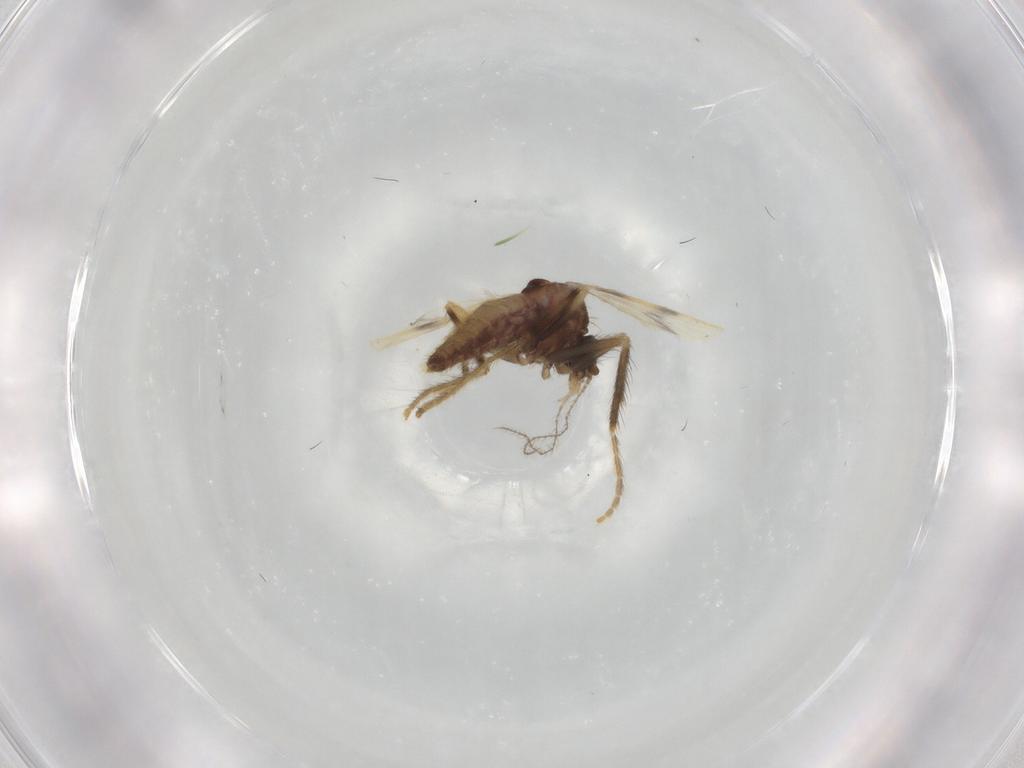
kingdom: Animalia
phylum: Arthropoda
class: Insecta
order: Diptera
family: Corethrellidae
